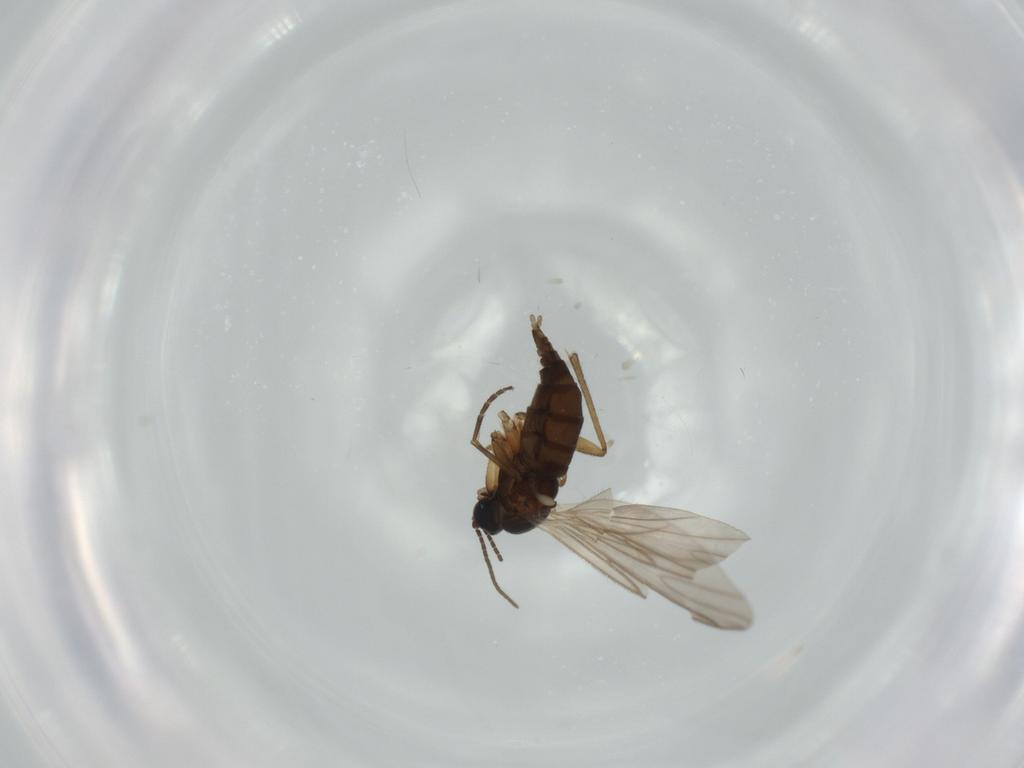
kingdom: Animalia
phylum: Arthropoda
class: Insecta
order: Diptera
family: Sciaridae
